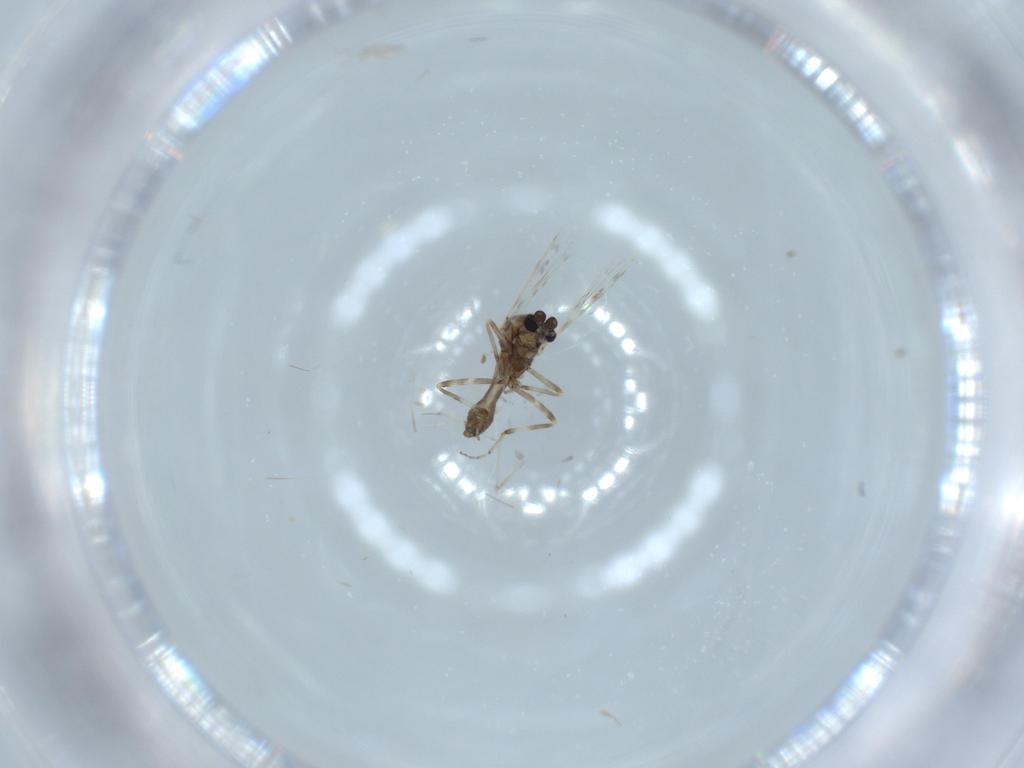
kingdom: Animalia
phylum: Arthropoda
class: Insecta
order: Diptera
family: Ceratopogonidae
